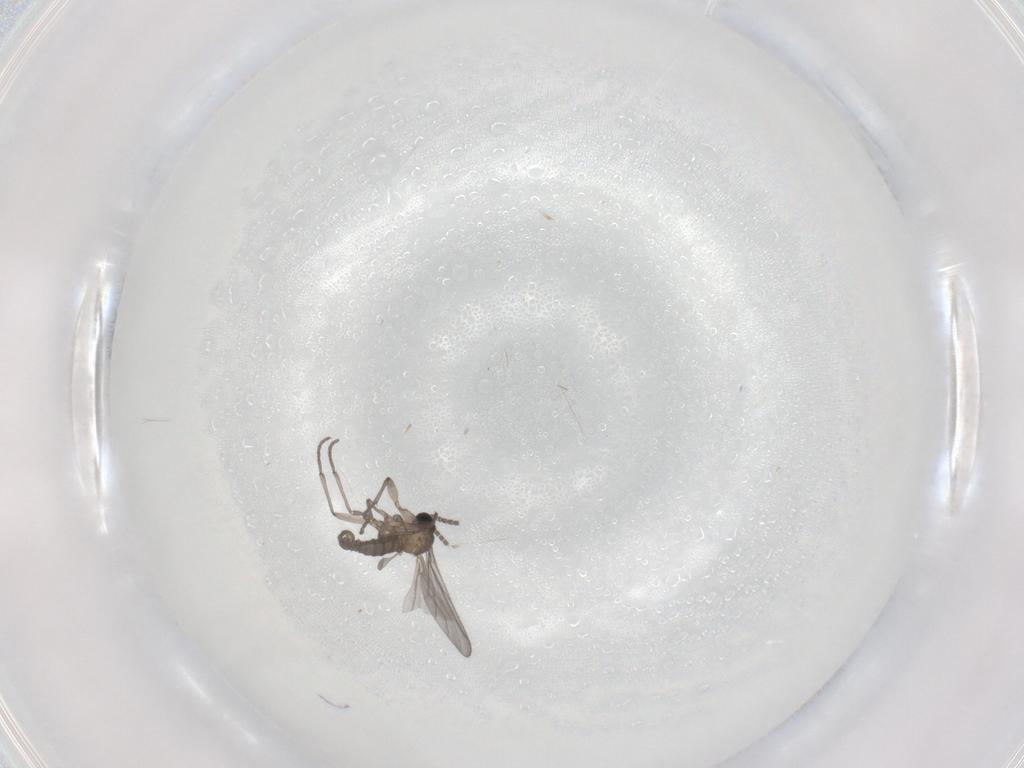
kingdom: Animalia
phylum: Arthropoda
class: Insecta
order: Diptera
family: Sciaridae
